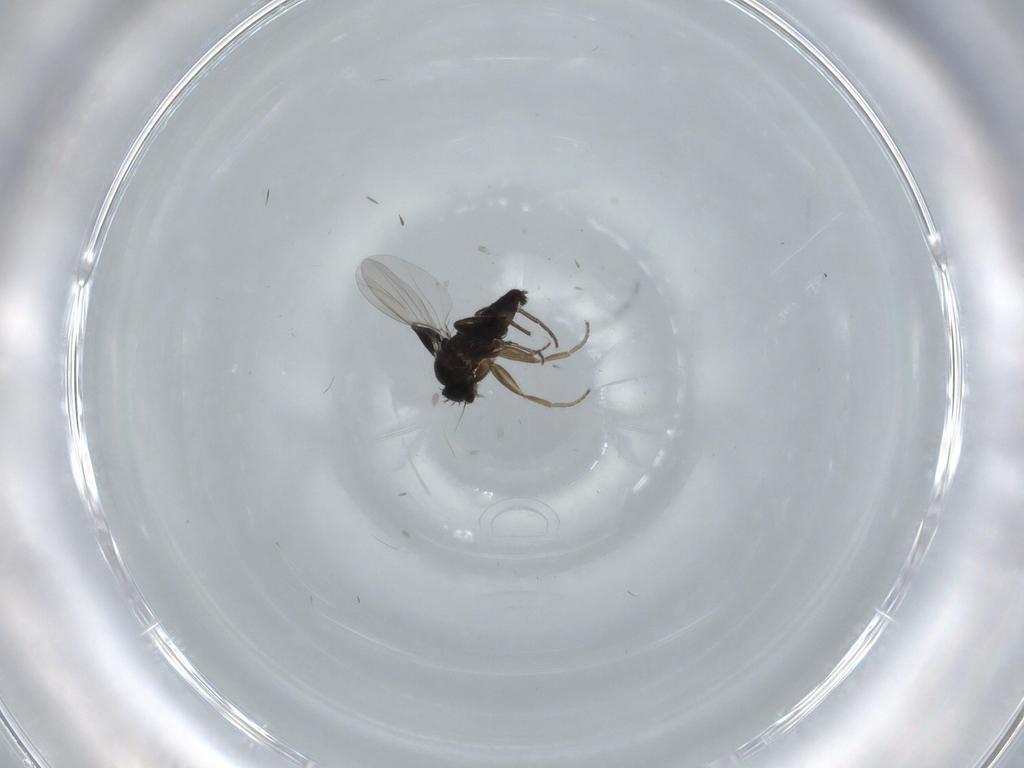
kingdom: Animalia
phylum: Arthropoda
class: Insecta
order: Diptera
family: Phoridae
